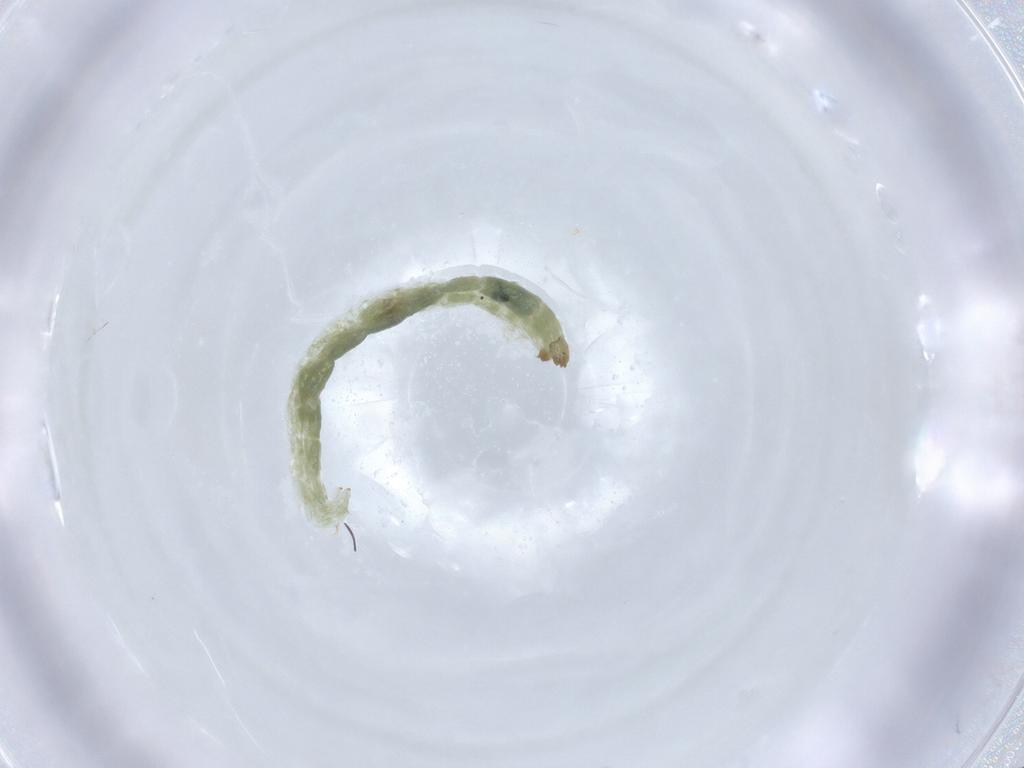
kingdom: Animalia
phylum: Arthropoda
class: Insecta
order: Diptera
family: Chironomidae
